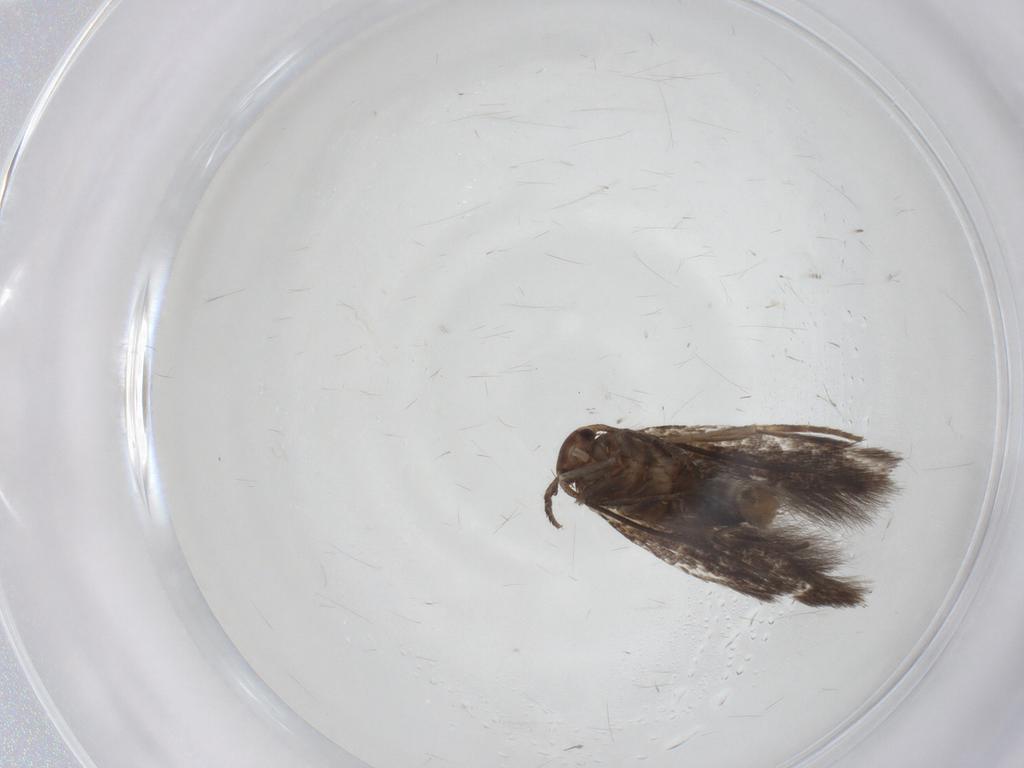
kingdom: Animalia
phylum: Arthropoda
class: Insecta
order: Lepidoptera
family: Elachistidae
